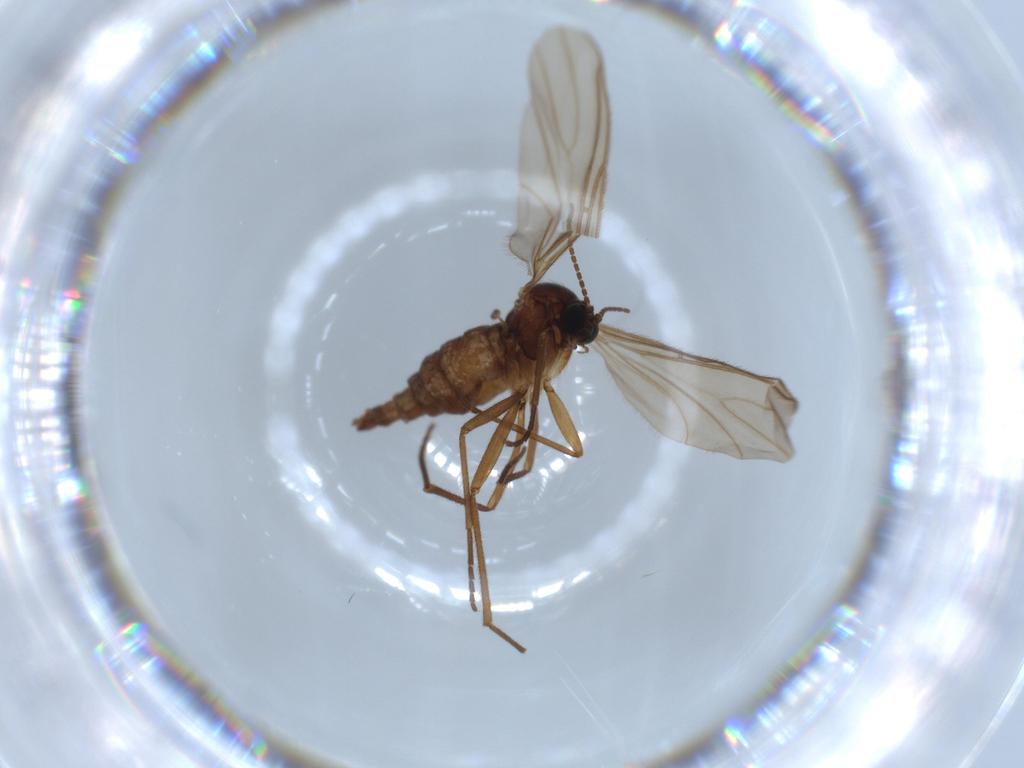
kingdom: Animalia
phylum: Arthropoda
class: Insecta
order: Diptera
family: Sciaridae
